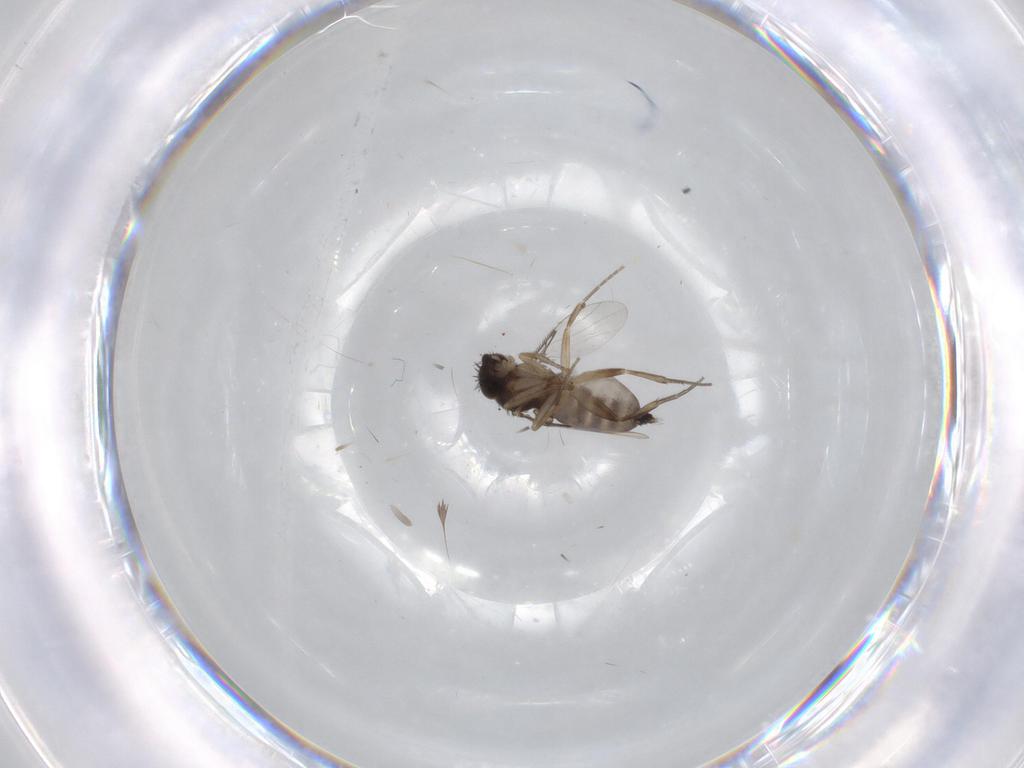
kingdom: Animalia
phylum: Arthropoda
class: Insecta
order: Diptera
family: Phoridae
